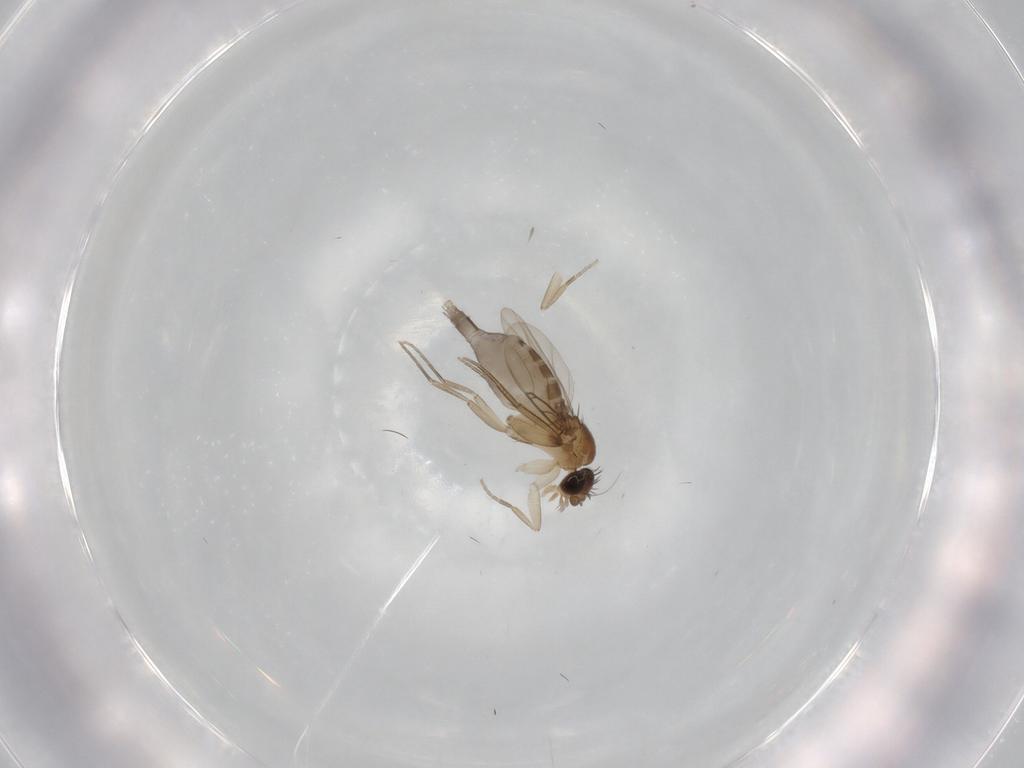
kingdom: Animalia
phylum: Arthropoda
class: Insecta
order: Diptera
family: Phoridae
